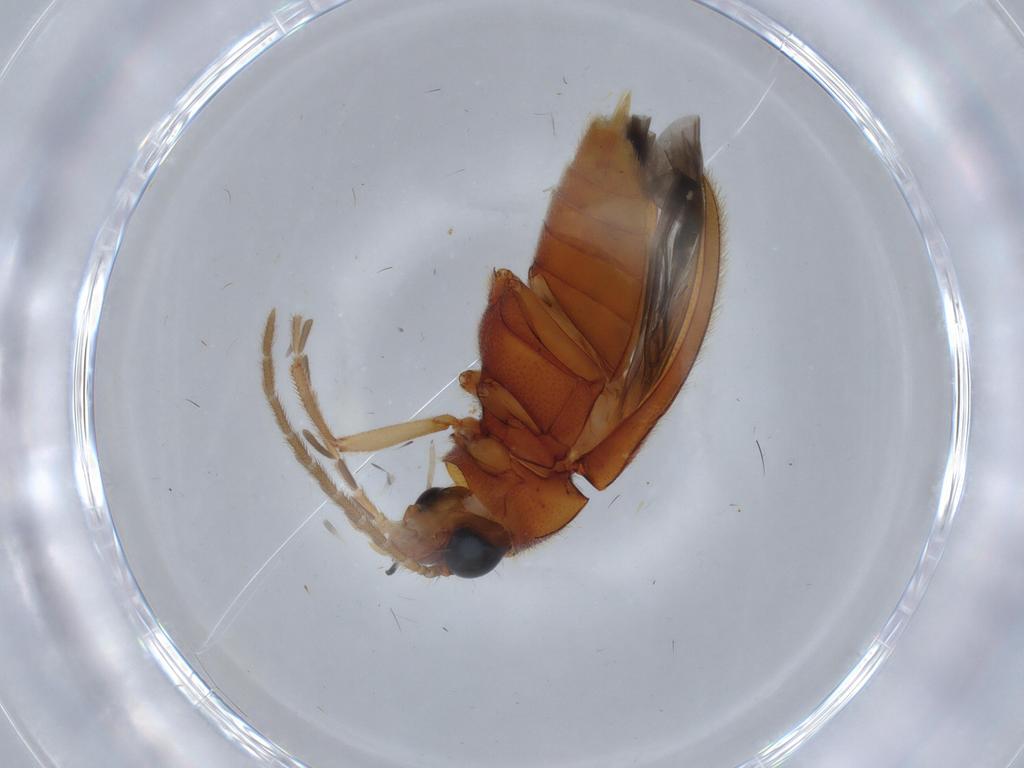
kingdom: Animalia
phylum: Arthropoda
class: Insecta
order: Coleoptera
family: Ptilodactylidae
